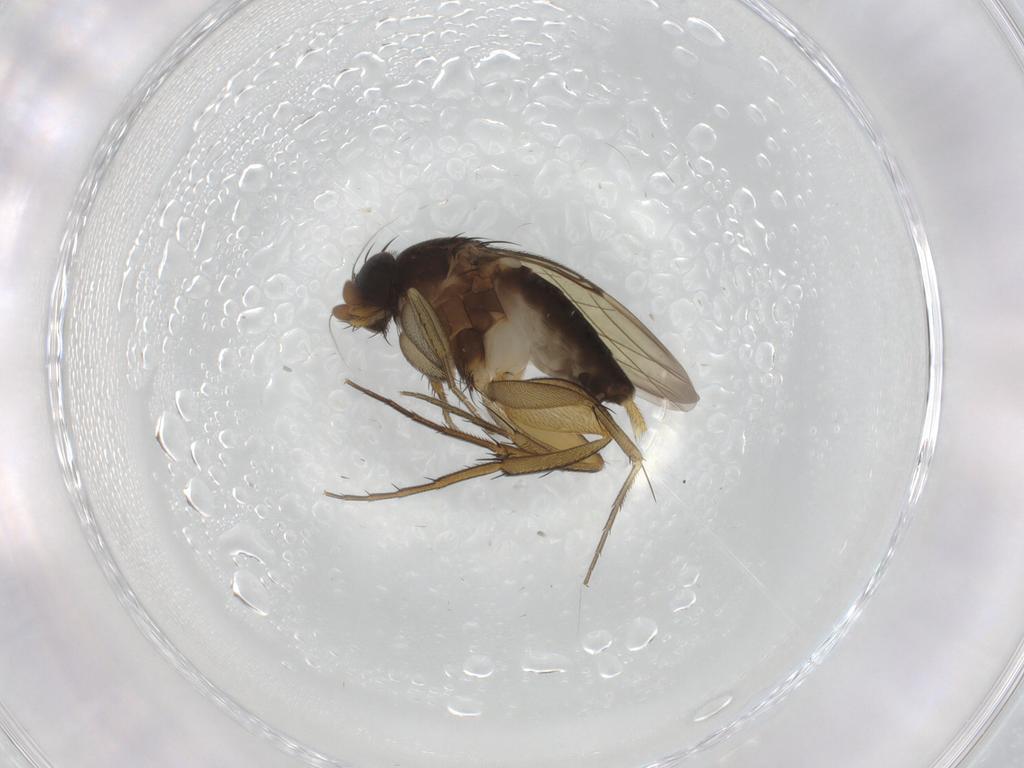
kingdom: Animalia
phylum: Arthropoda
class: Insecta
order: Diptera
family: Phoridae
